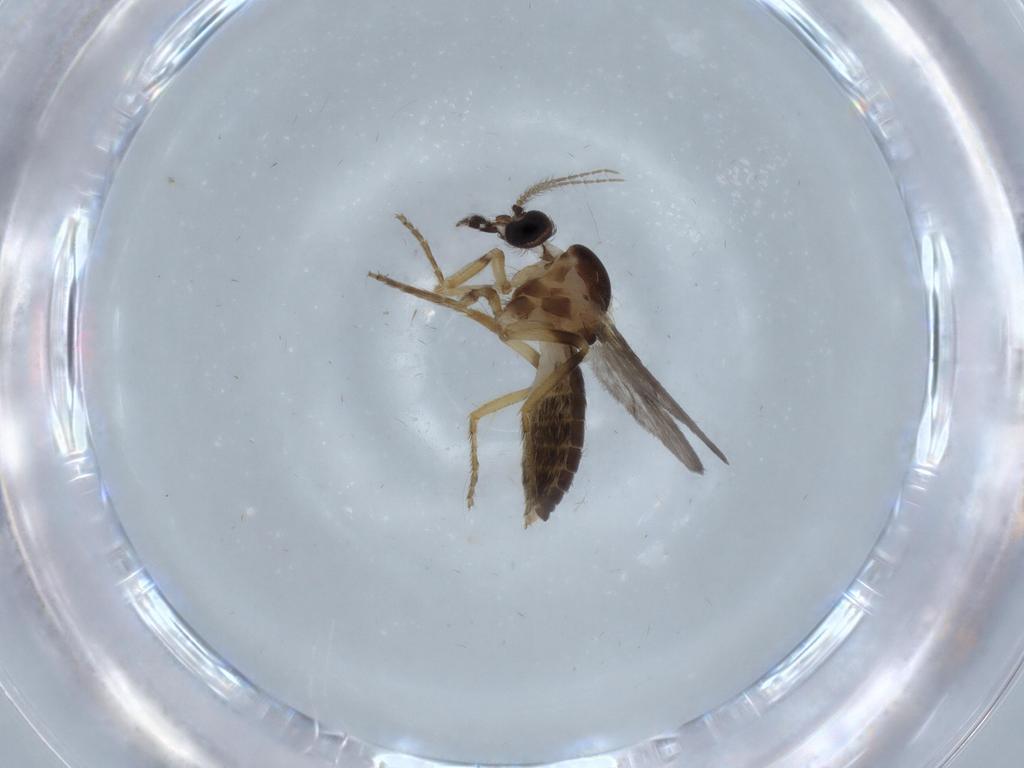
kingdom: Animalia
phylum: Arthropoda
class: Insecta
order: Diptera
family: Ceratopogonidae
